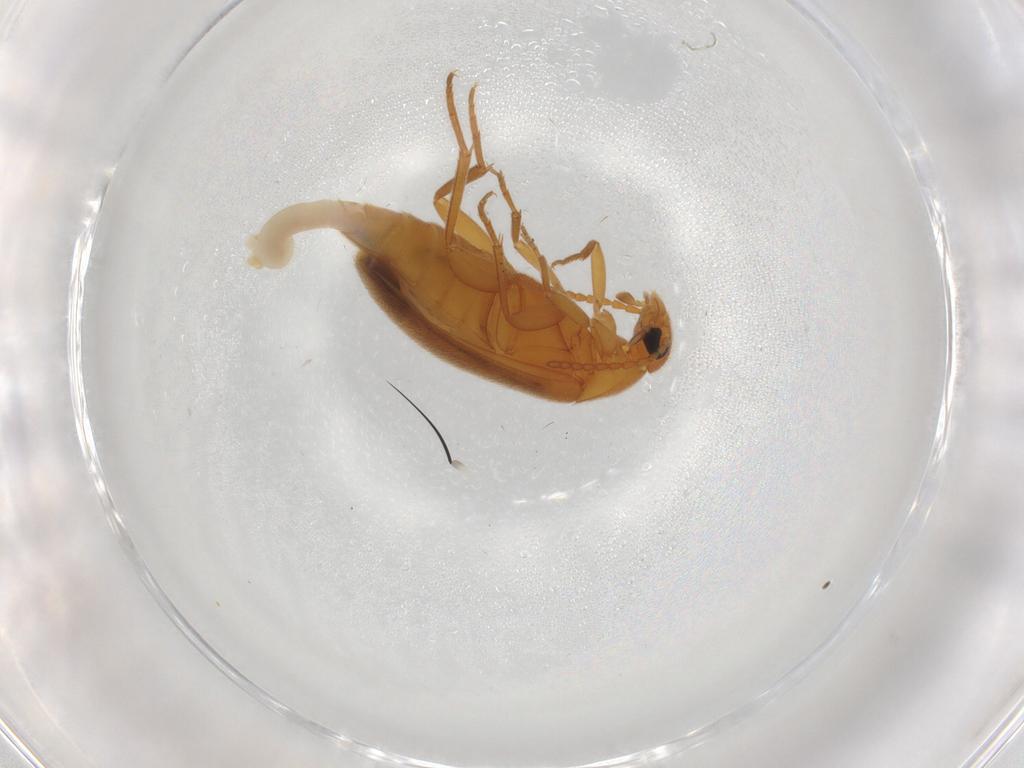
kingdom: Animalia
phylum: Arthropoda
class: Insecta
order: Coleoptera
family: Scraptiidae
